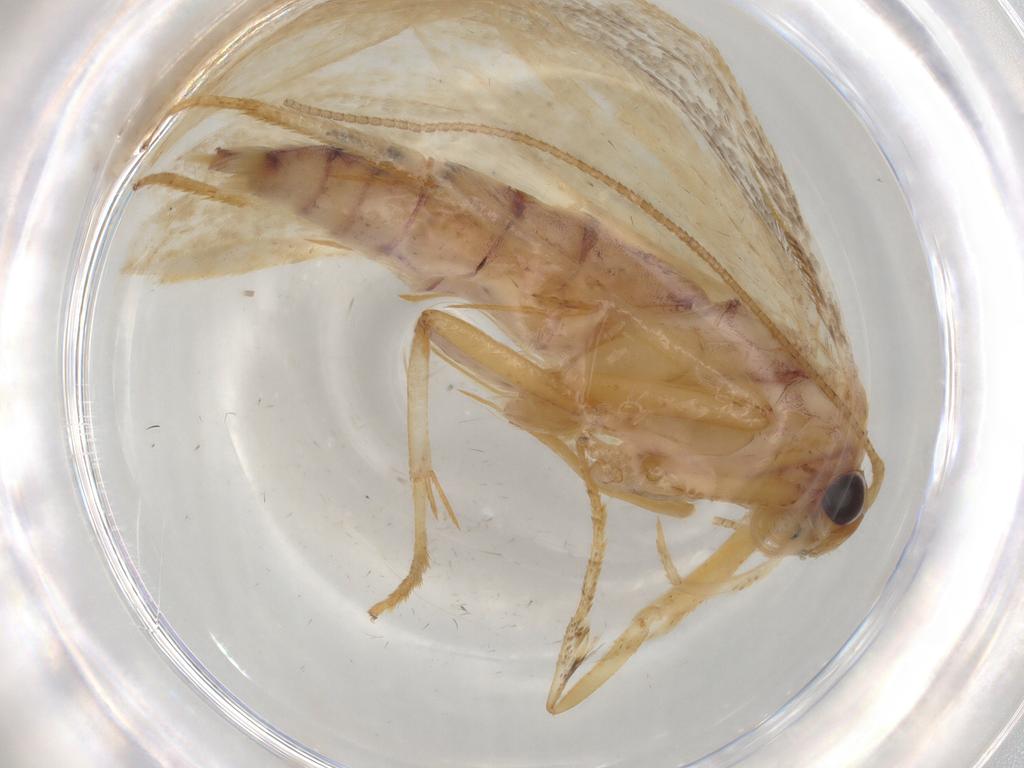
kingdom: Animalia
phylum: Arthropoda
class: Insecta
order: Lepidoptera
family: Blastobasidae
